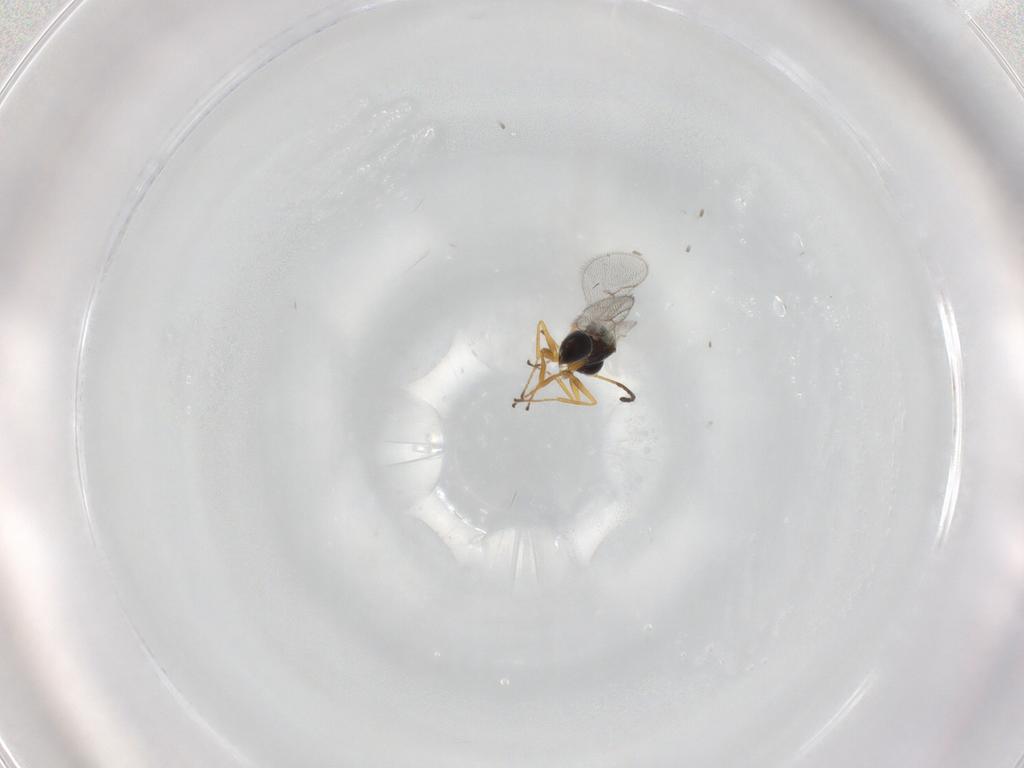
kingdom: Animalia
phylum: Arthropoda
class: Insecta
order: Hymenoptera
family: Figitidae
